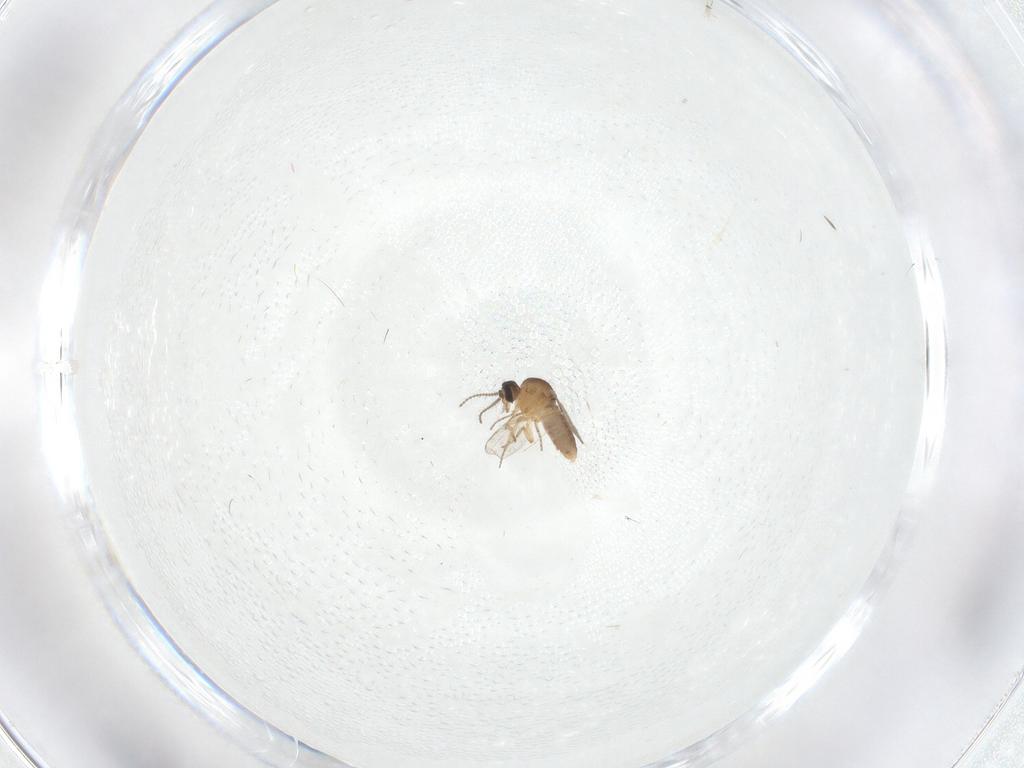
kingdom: Animalia
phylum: Arthropoda
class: Insecta
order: Diptera
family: Ceratopogonidae
